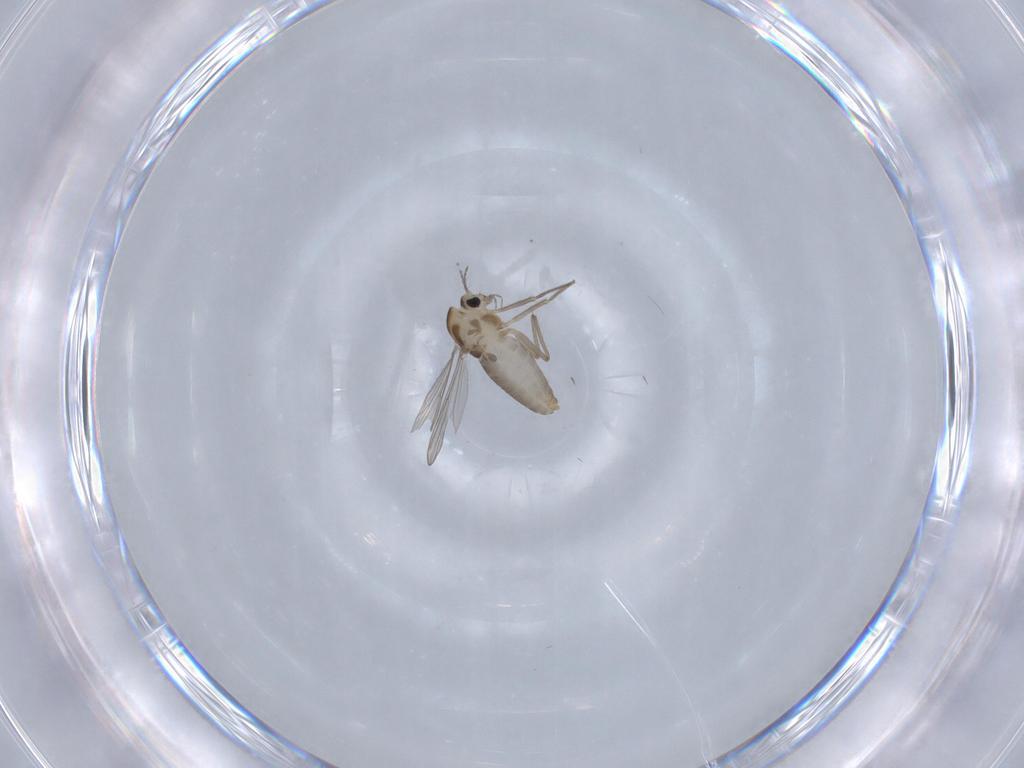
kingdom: Animalia
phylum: Arthropoda
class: Insecta
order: Diptera
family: Chironomidae
